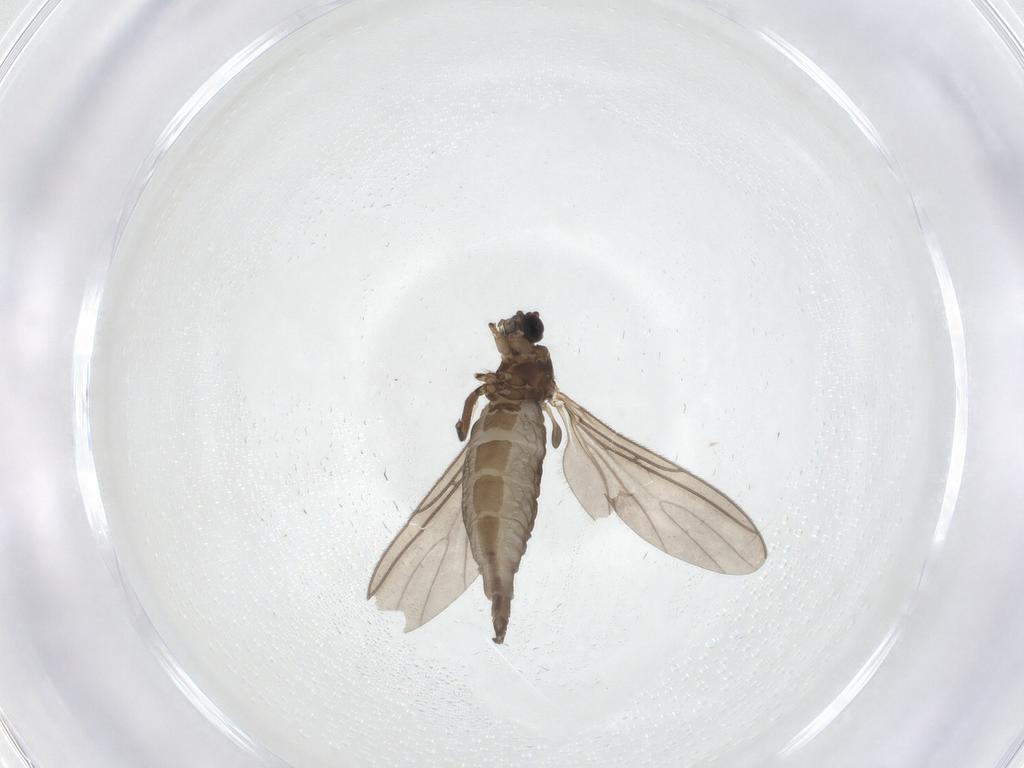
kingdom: Animalia
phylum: Arthropoda
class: Insecta
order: Diptera
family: Sciaridae
